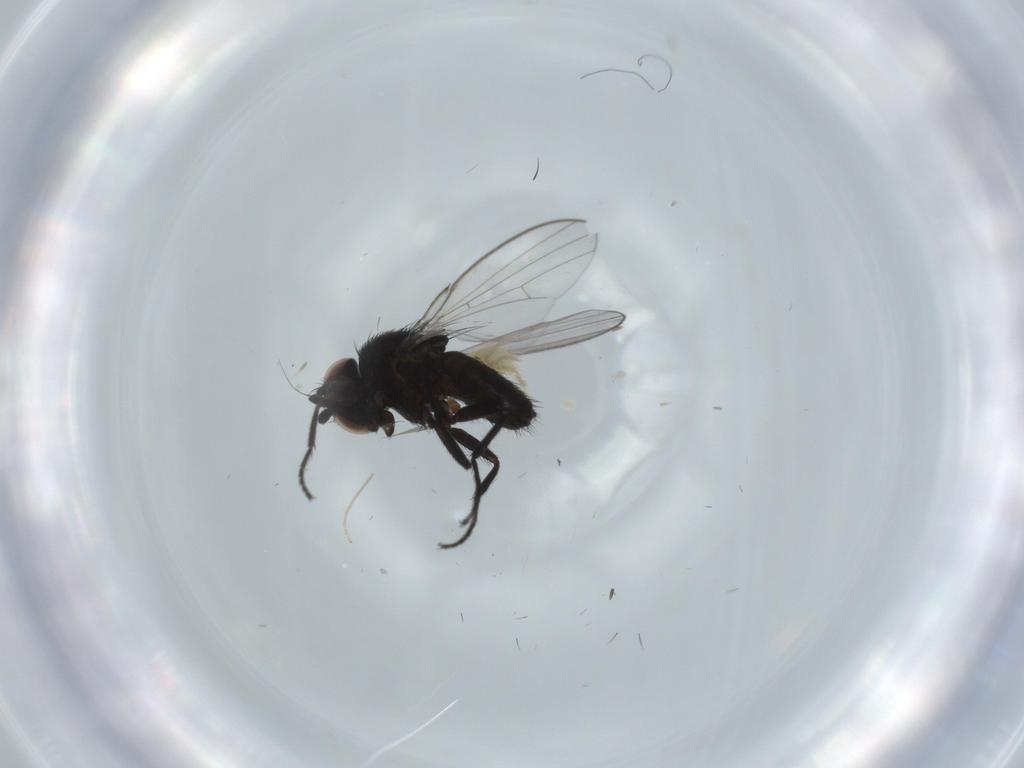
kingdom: Animalia
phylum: Arthropoda
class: Insecta
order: Diptera
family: Milichiidae
